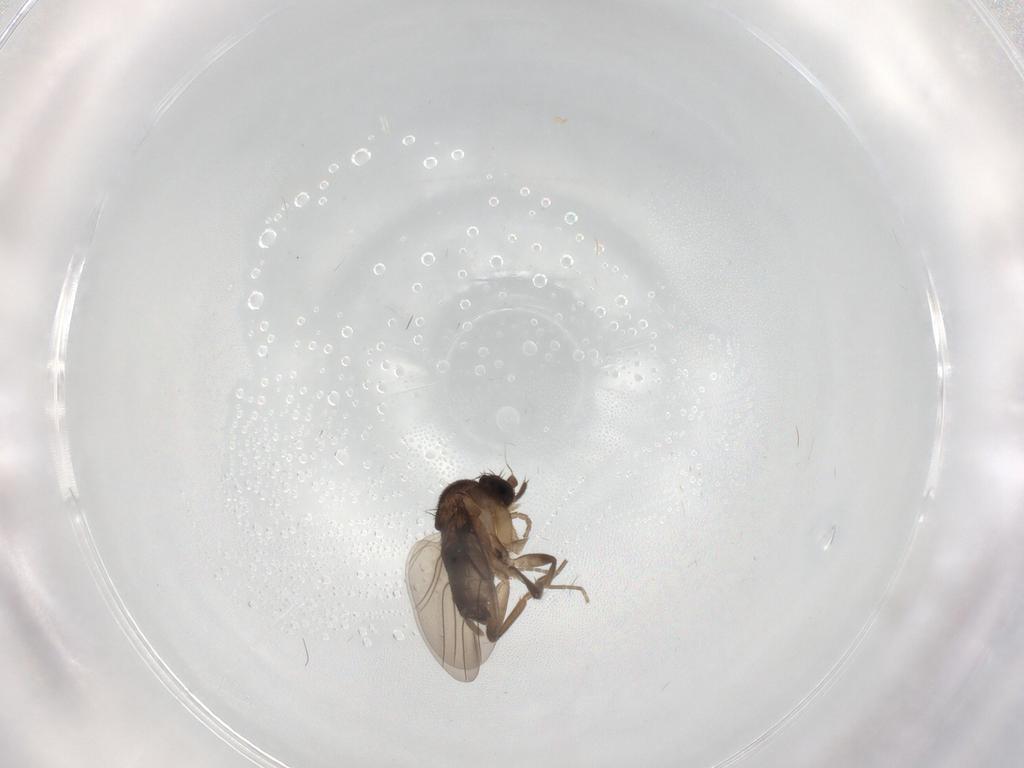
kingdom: Animalia
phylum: Arthropoda
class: Insecta
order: Diptera
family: Phoridae
